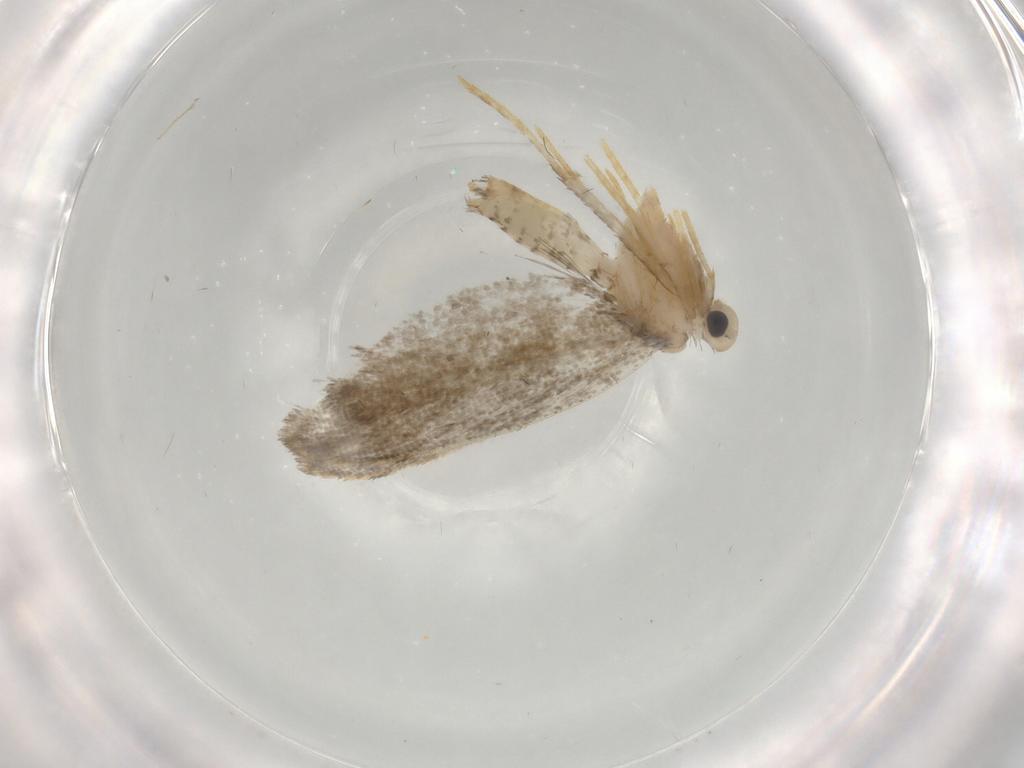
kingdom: Animalia
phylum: Arthropoda
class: Insecta
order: Lepidoptera
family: Psychidae
